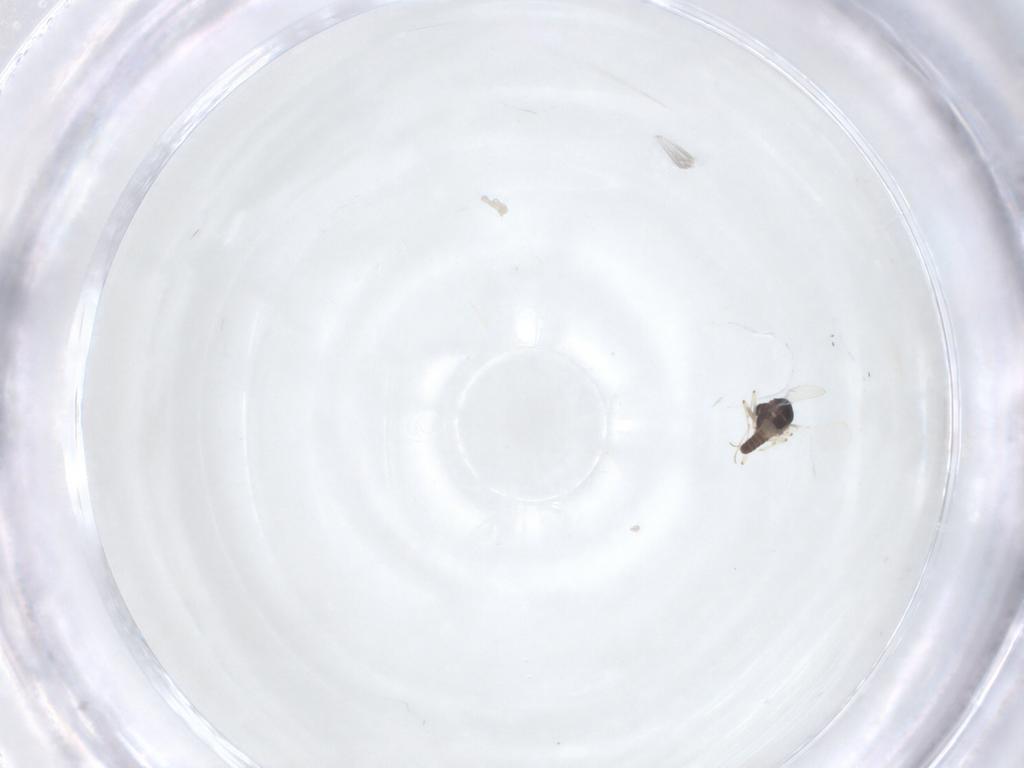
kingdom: Animalia
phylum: Arthropoda
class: Insecta
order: Diptera
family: Chironomidae
